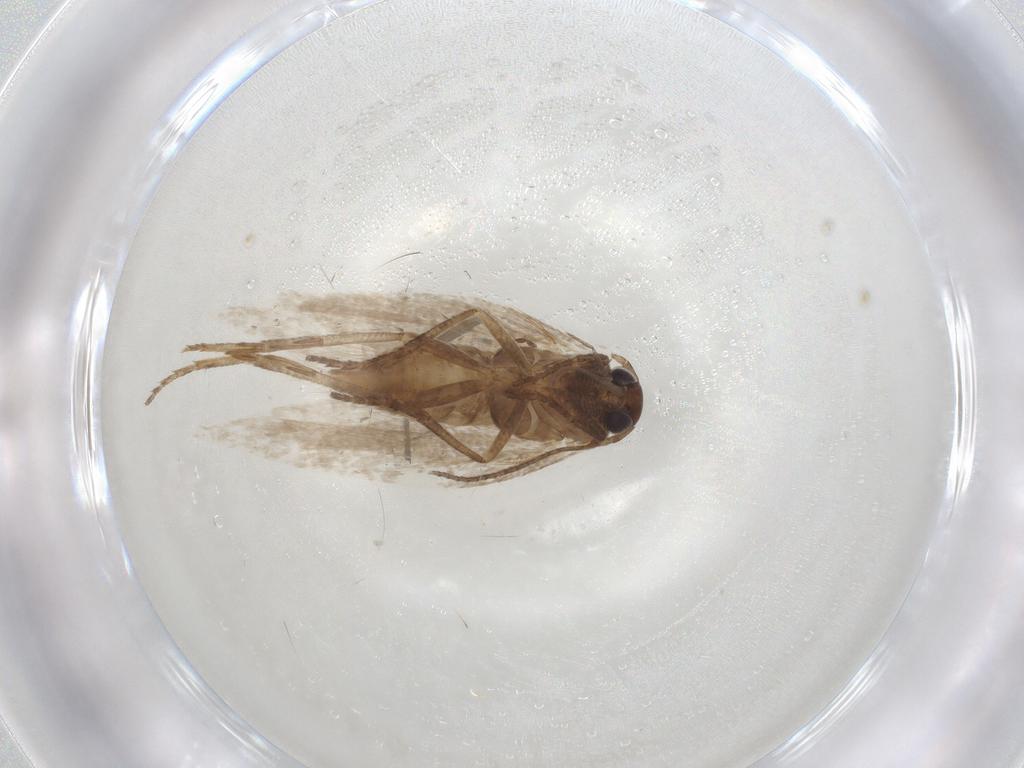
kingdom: Animalia
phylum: Arthropoda
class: Insecta
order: Lepidoptera
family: Gelechiidae
